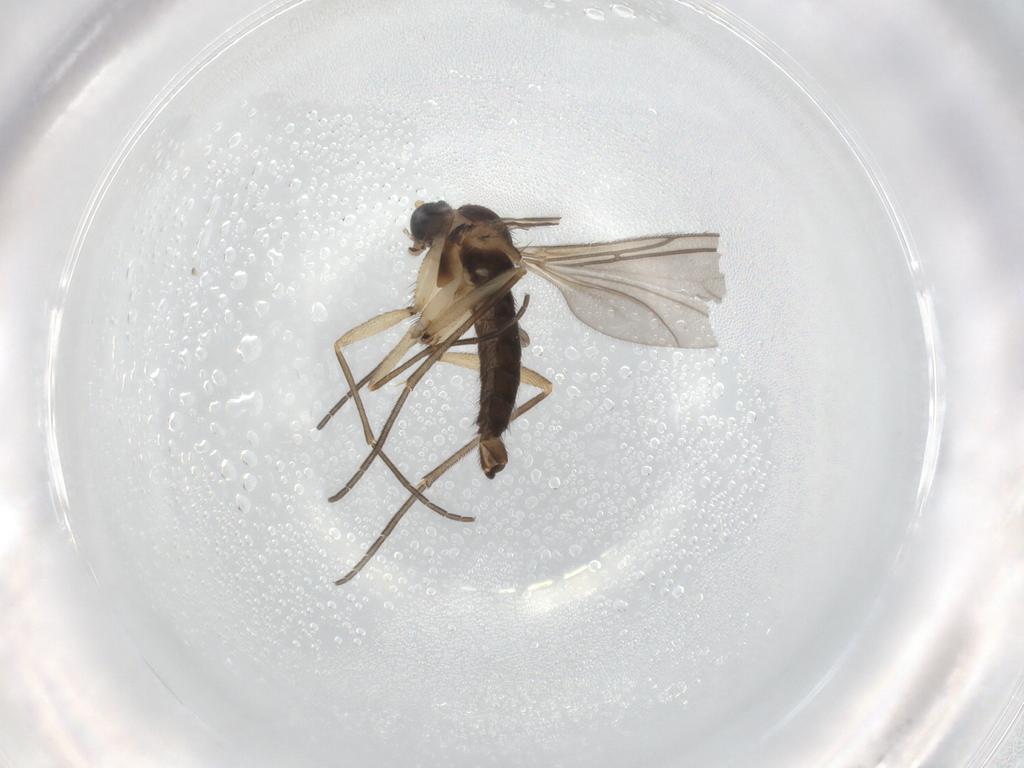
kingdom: Animalia
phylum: Arthropoda
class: Insecta
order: Diptera
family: Sciaridae
